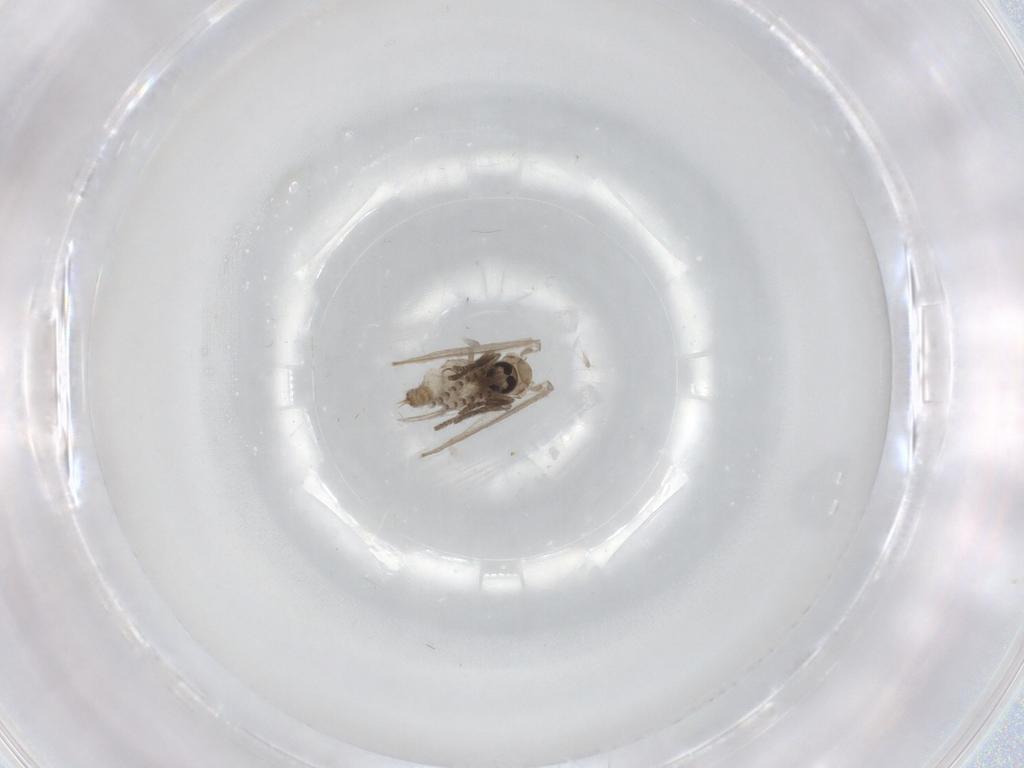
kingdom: Animalia
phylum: Arthropoda
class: Insecta
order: Diptera
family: Psychodidae
